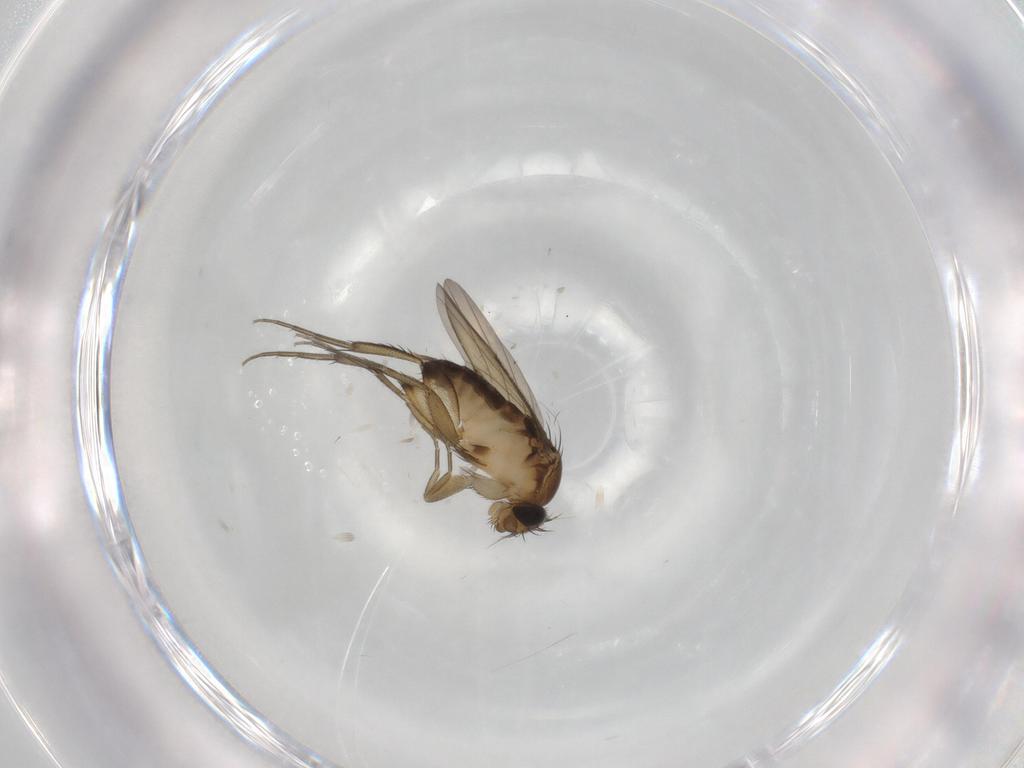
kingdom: Animalia
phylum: Arthropoda
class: Insecta
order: Diptera
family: Phoridae
